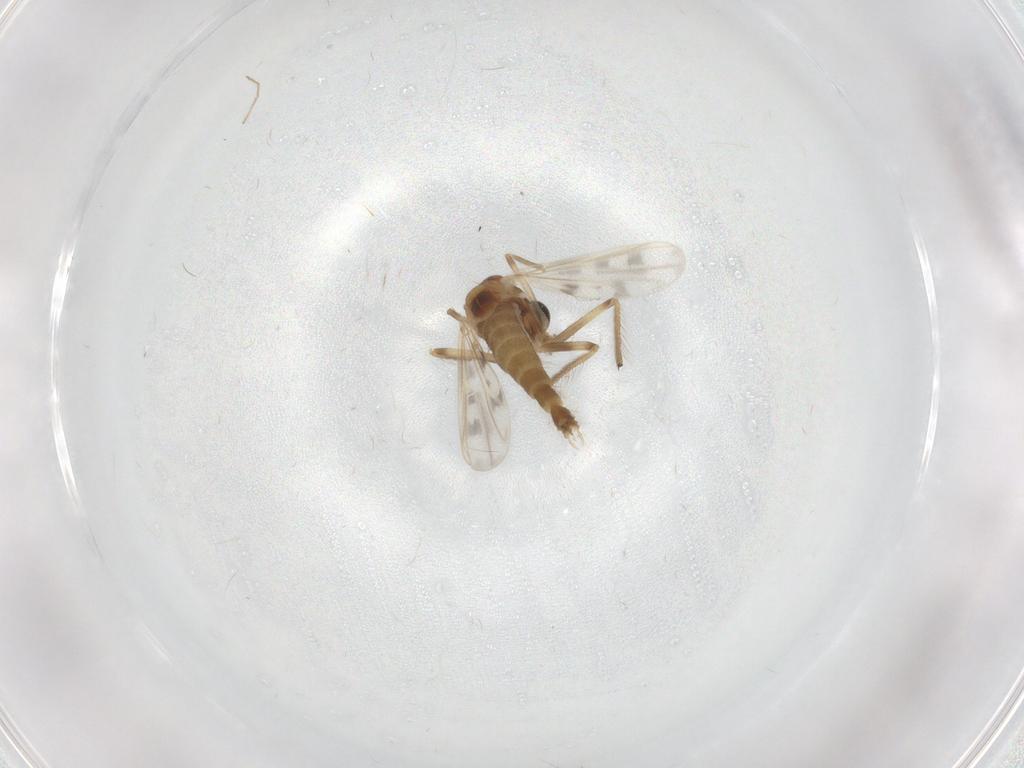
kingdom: Animalia
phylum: Arthropoda
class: Insecta
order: Diptera
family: Chironomidae
